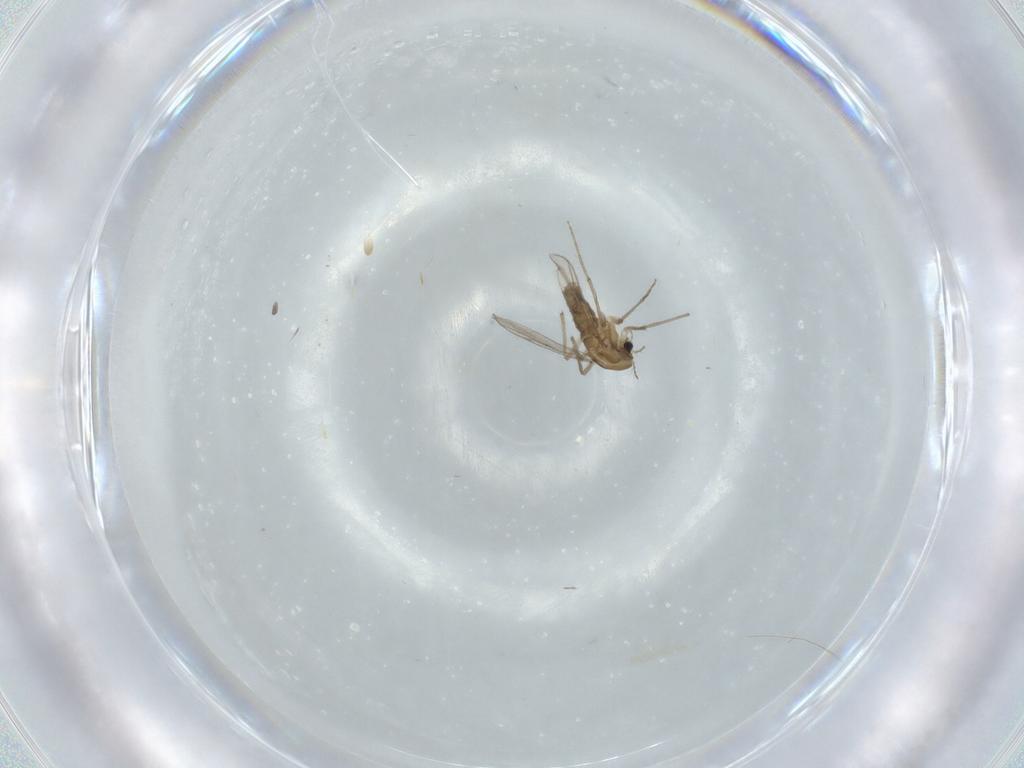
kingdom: Animalia
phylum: Arthropoda
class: Insecta
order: Diptera
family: Chironomidae
